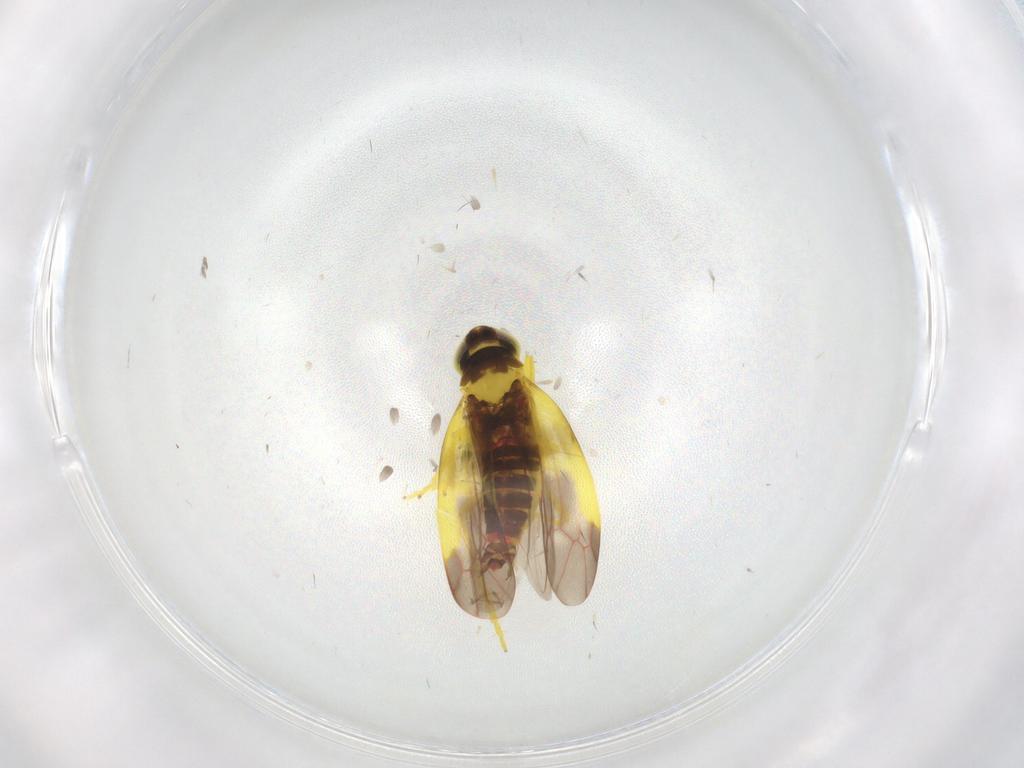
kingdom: Animalia
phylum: Arthropoda
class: Insecta
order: Hemiptera
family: Cicadellidae
